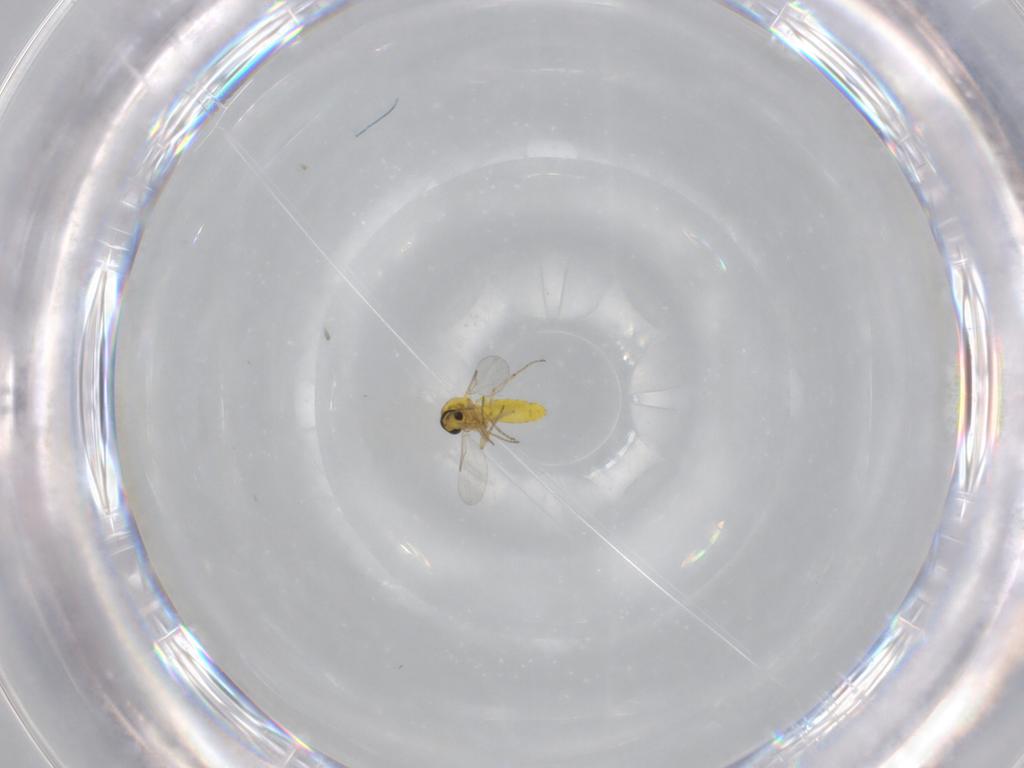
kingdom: Animalia
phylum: Arthropoda
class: Insecta
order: Diptera
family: Ceratopogonidae
